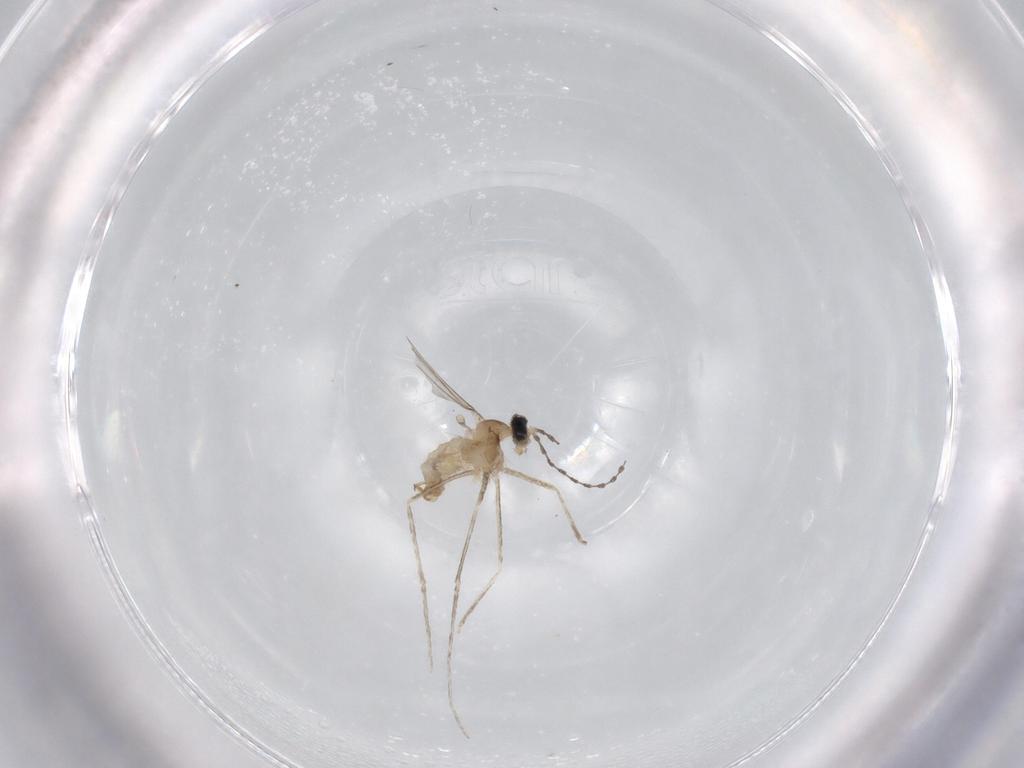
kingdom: Animalia
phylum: Arthropoda
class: Insecta
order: Diptera
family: Cecidomyiidae
